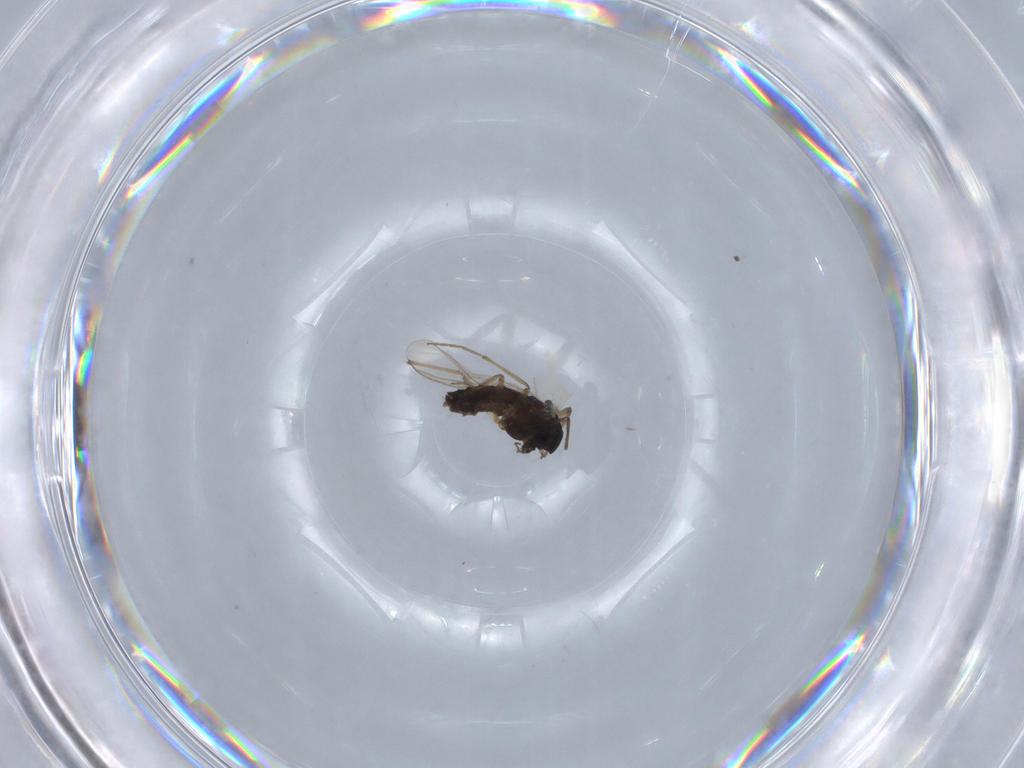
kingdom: Animalia
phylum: Arthropoda
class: Insecta
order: Diptera
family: Chironomidae
